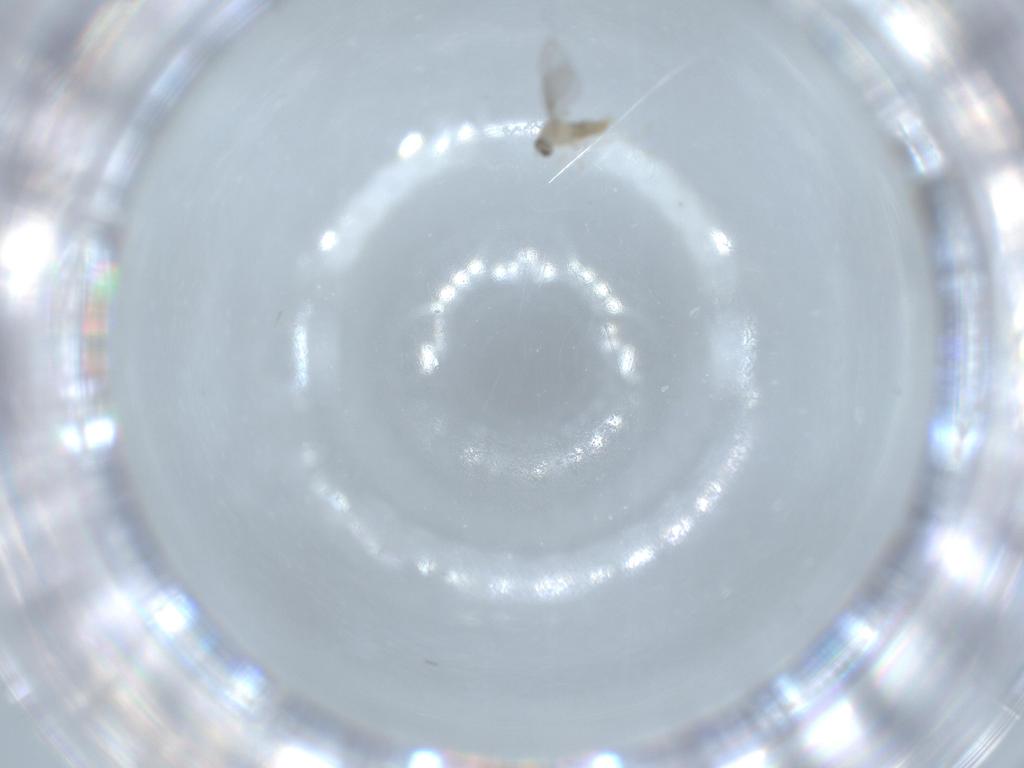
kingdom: Animalia
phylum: Arthropoda
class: Insecta
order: Diptera
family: Cecidomyiidae
